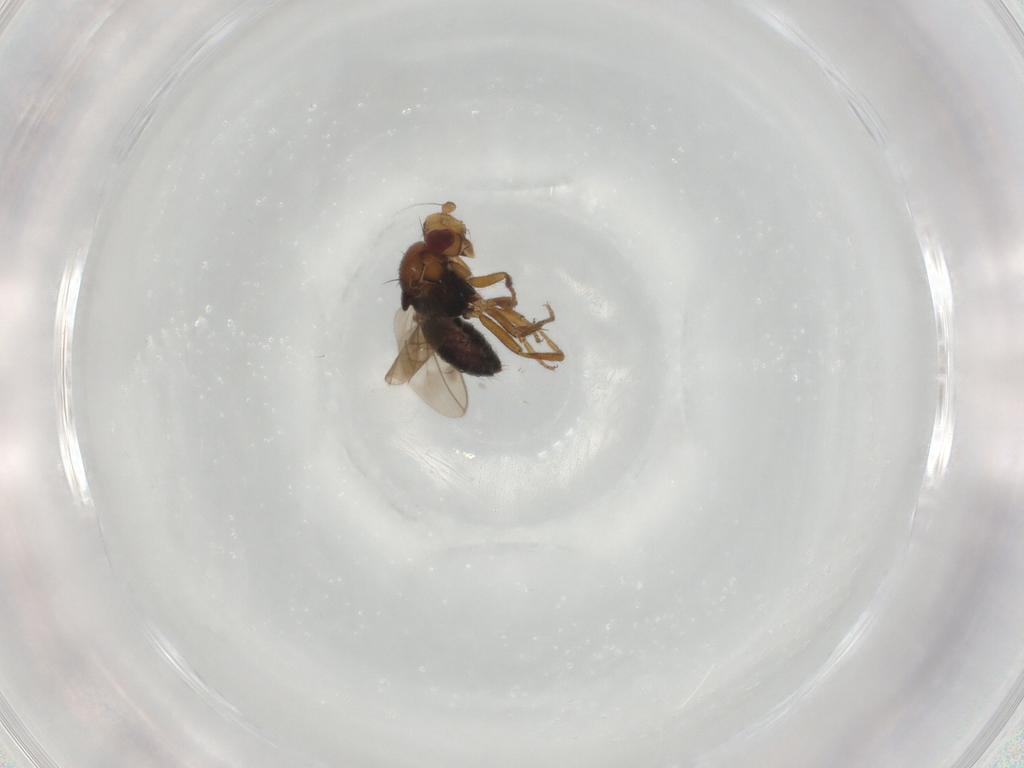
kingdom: Animalia
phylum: Arthropoda
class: Insecta
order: Diptera
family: Sphaeroceridae
